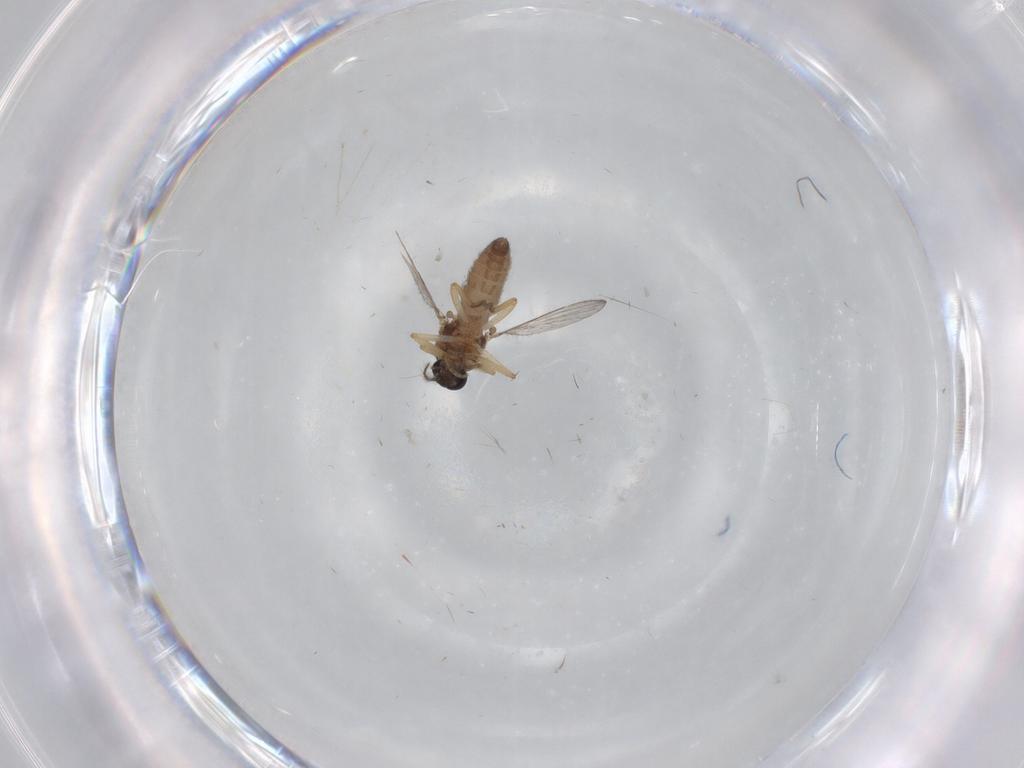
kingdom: Animalia
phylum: Arthropoda
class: Insecta
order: Diptera
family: Ceratopogonidae
